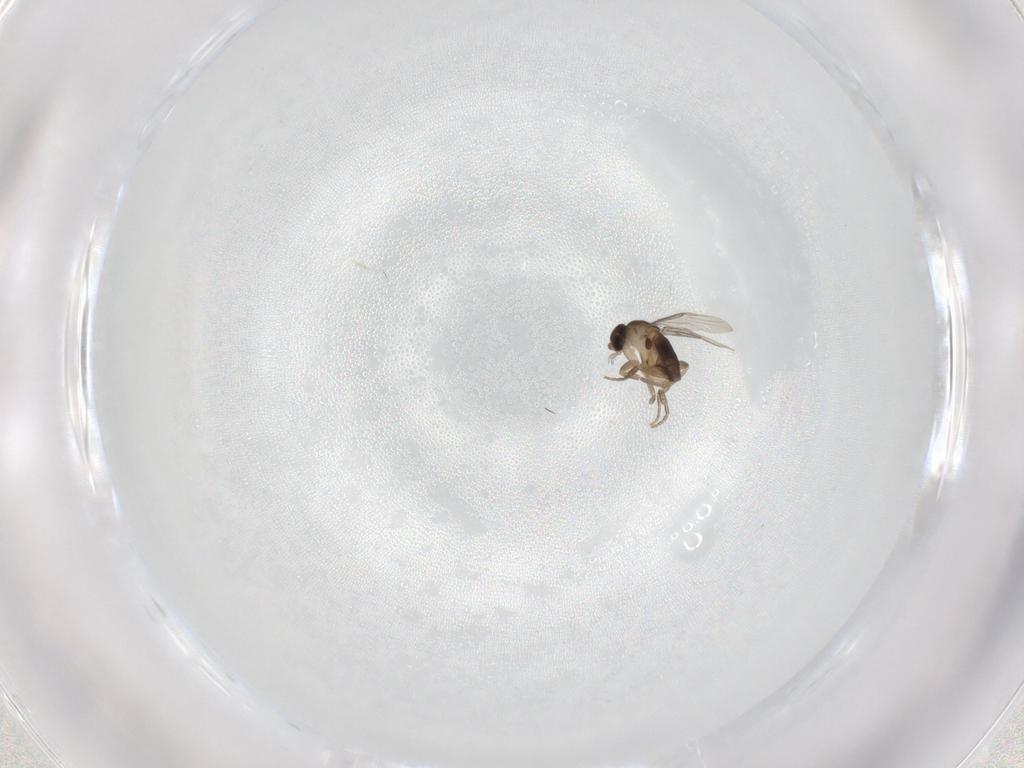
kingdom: Animalia
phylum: Arthropoda
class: Insecta
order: Diptera
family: Phoridae
